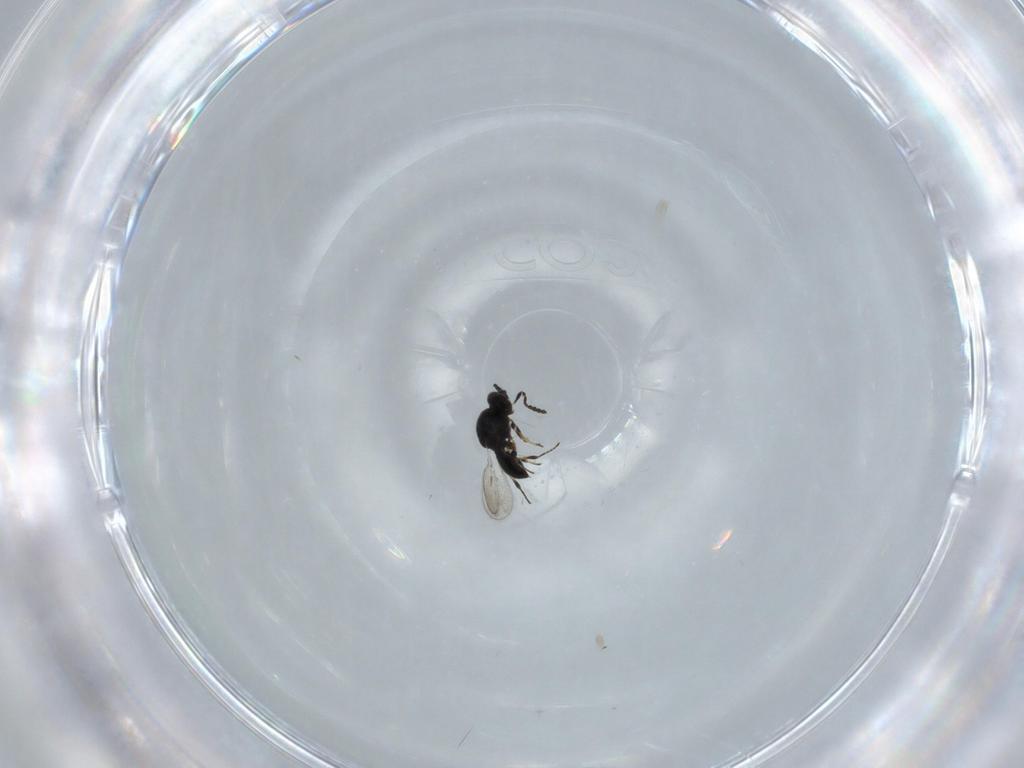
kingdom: Animalia
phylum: Arthropoda
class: Insecta
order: Hymenoptera
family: Platygastridae
